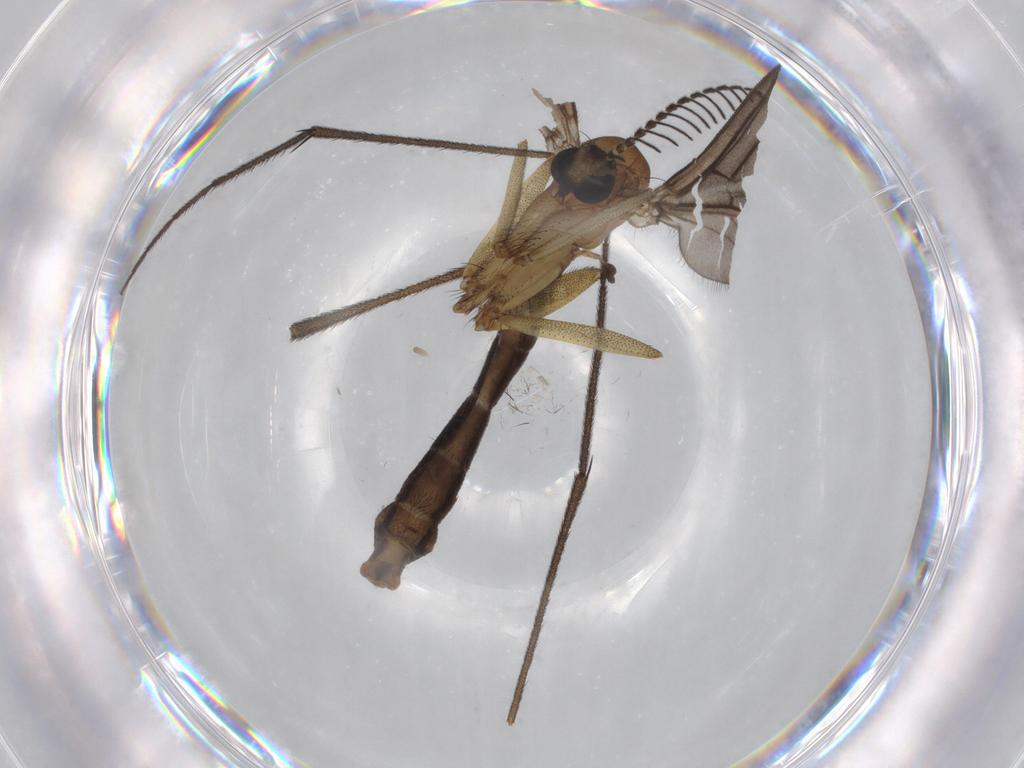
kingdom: Animalia
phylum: Arthropoda
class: Insecta
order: Diptera
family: Ditomyiidae
